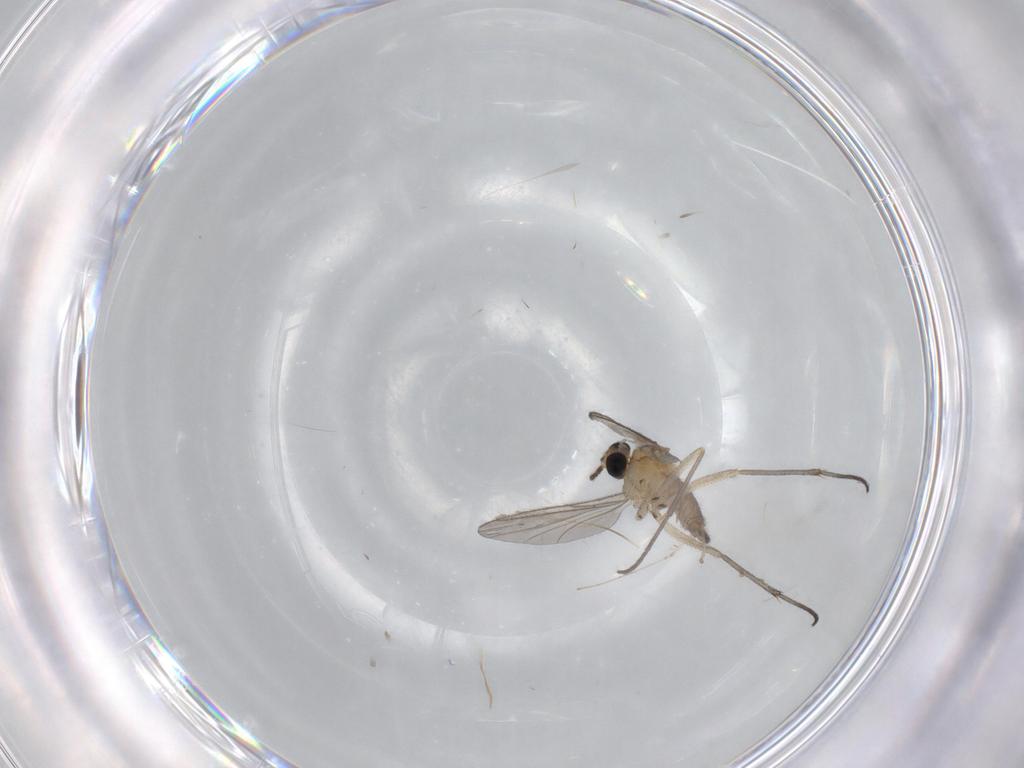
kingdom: Animalia
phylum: Arthropoda
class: Insecta
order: Diptera
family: Sciaridae
